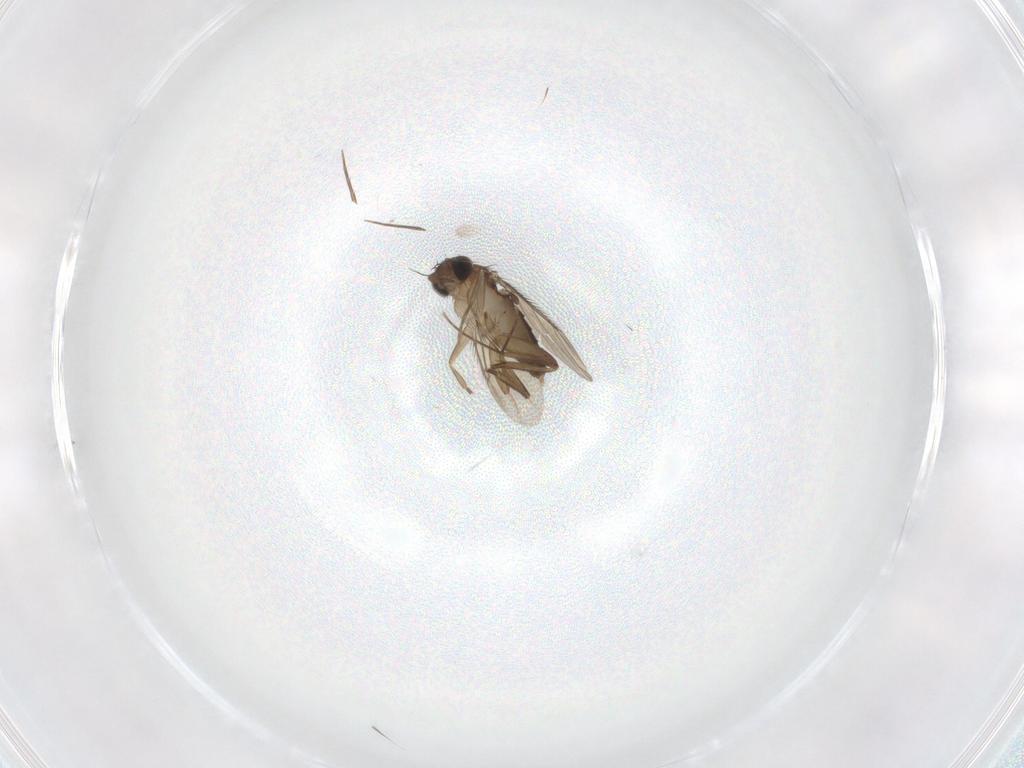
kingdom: Animalia
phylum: Arthropoda
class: Insecta
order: Diptera
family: Phoridae
